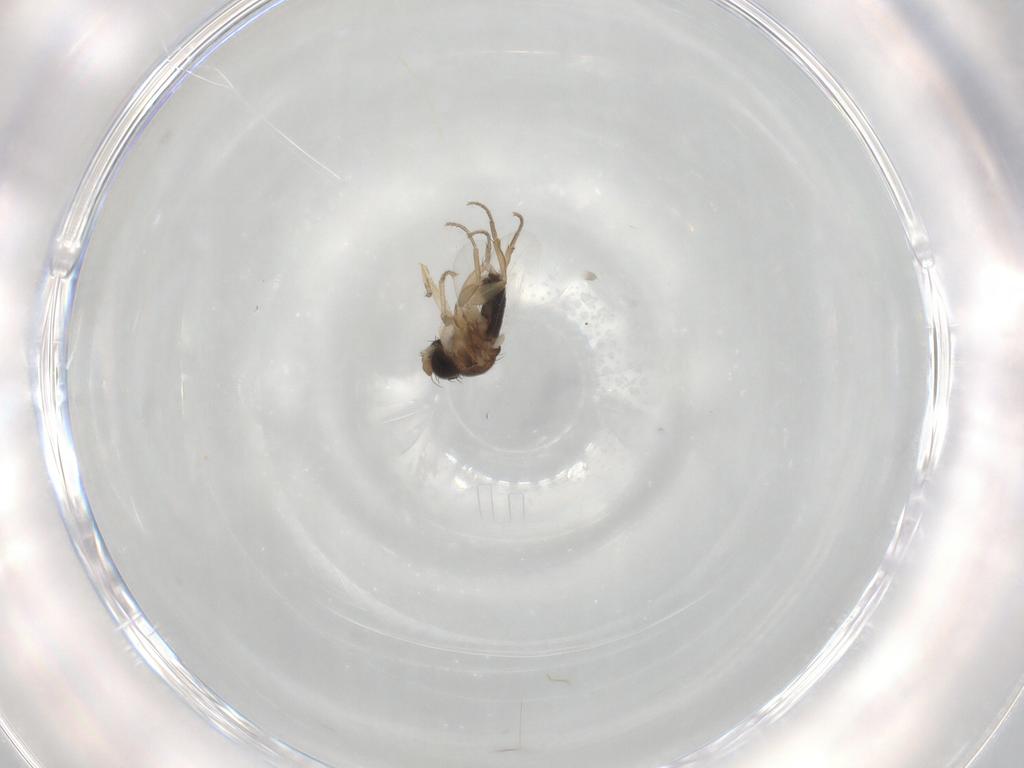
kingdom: Animalia
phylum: Arthropoda
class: Insecta
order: Diptera
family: Phoridae
